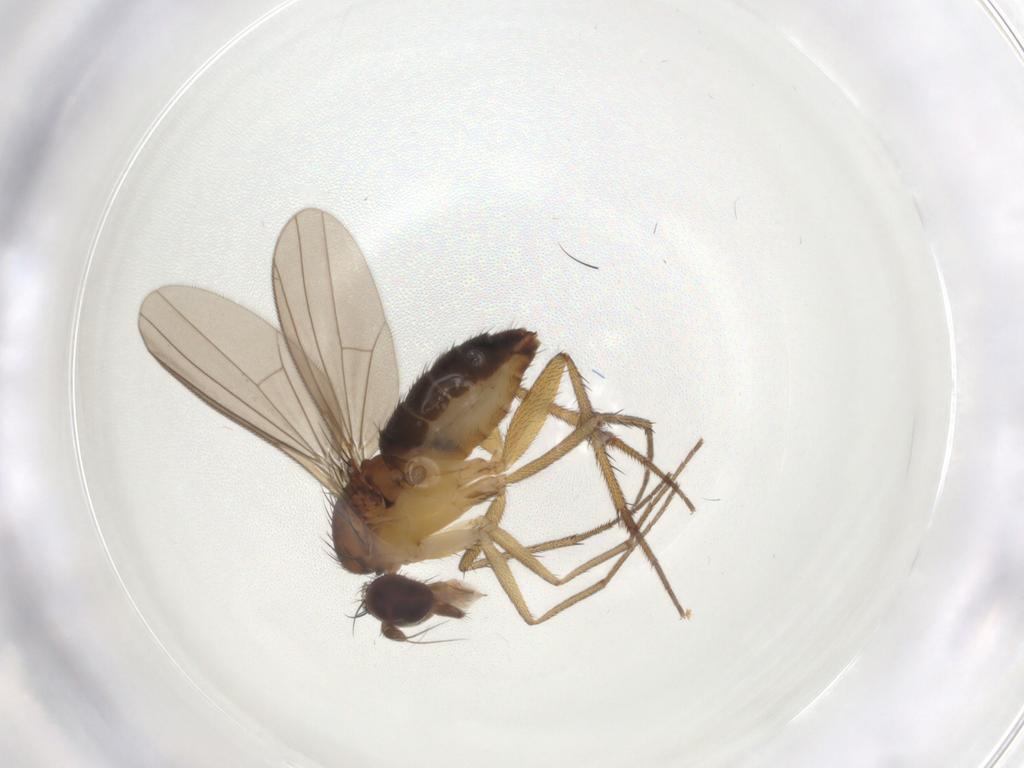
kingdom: Animalia
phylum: Arthropoda
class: Insecta
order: Diptera
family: Dolichopodidae
